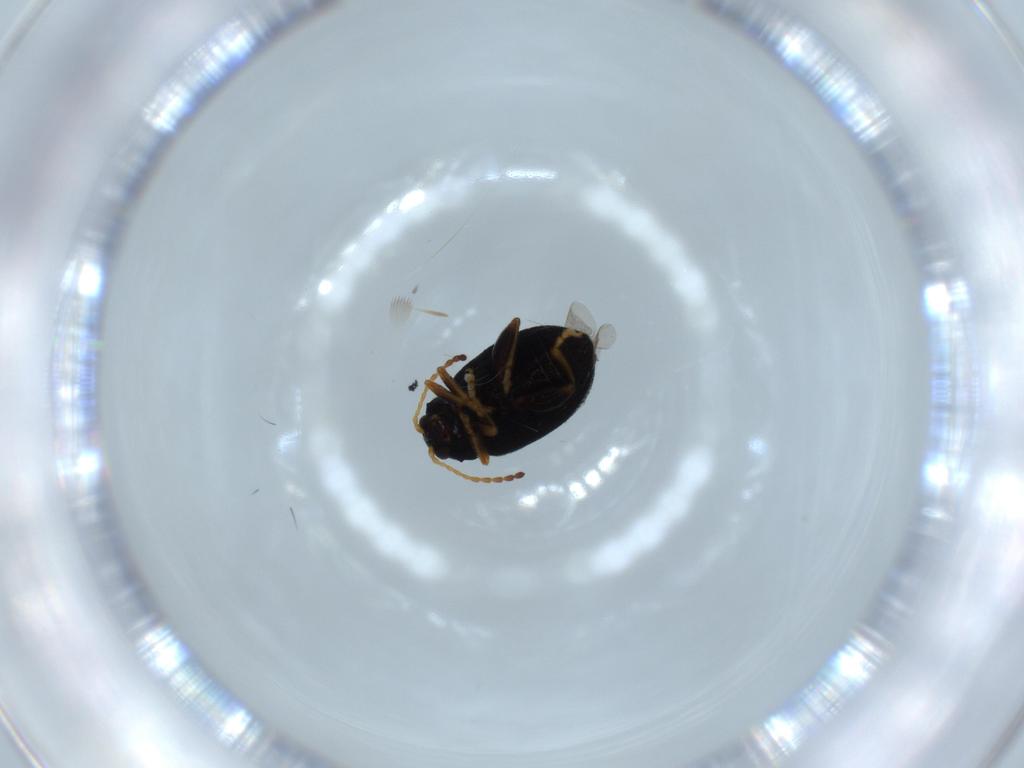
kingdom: Animalia
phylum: Arthropoda
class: Insecta
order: Coleoptera
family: Chrysomelidae
